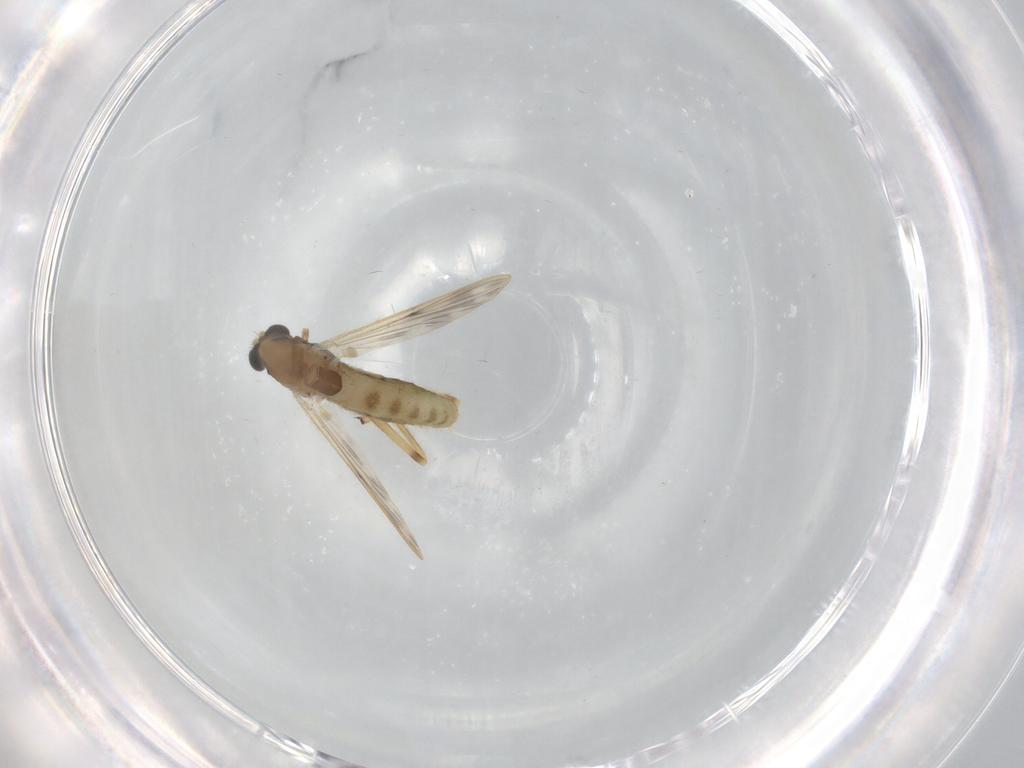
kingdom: Animalia
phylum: Arthropoda
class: Insecta
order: Diptera
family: Chironomidae
